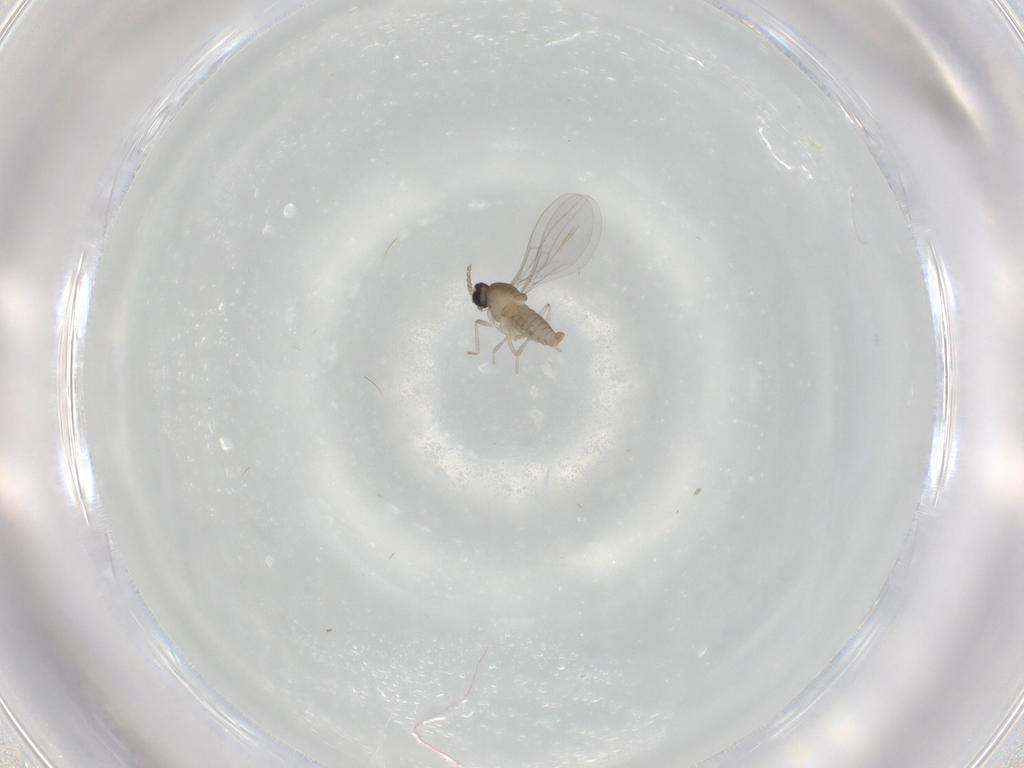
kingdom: Animalia
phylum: Arthropoda
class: Insecta
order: Diptera
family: Cecidomyiidae
